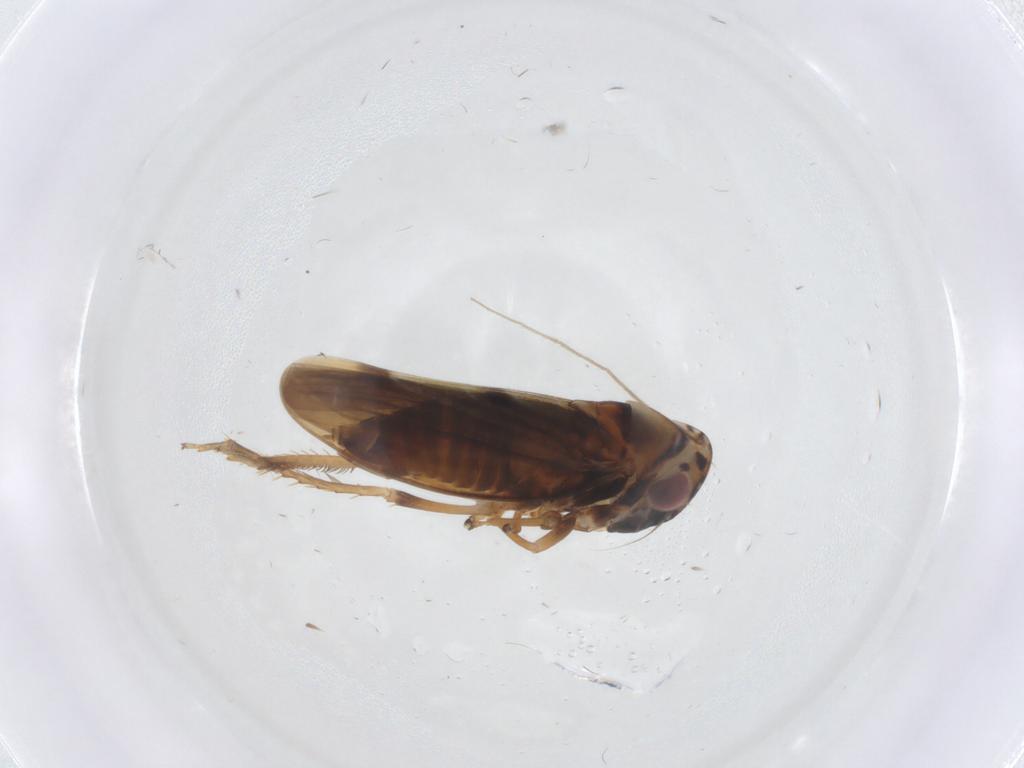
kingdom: Animalia
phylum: Arthropoda
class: Insecta
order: Hemiptera
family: Cicadellidae
